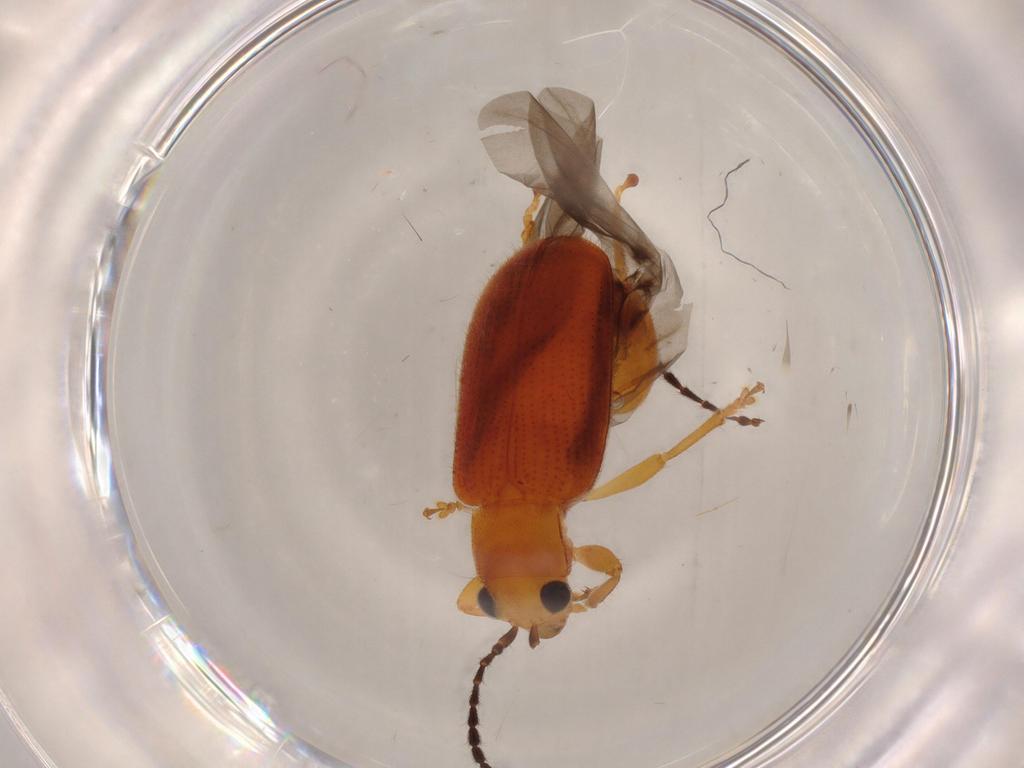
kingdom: Animalia
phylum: Arthropoda
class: Insecta
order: Coleoptera
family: Chrysomelidae
